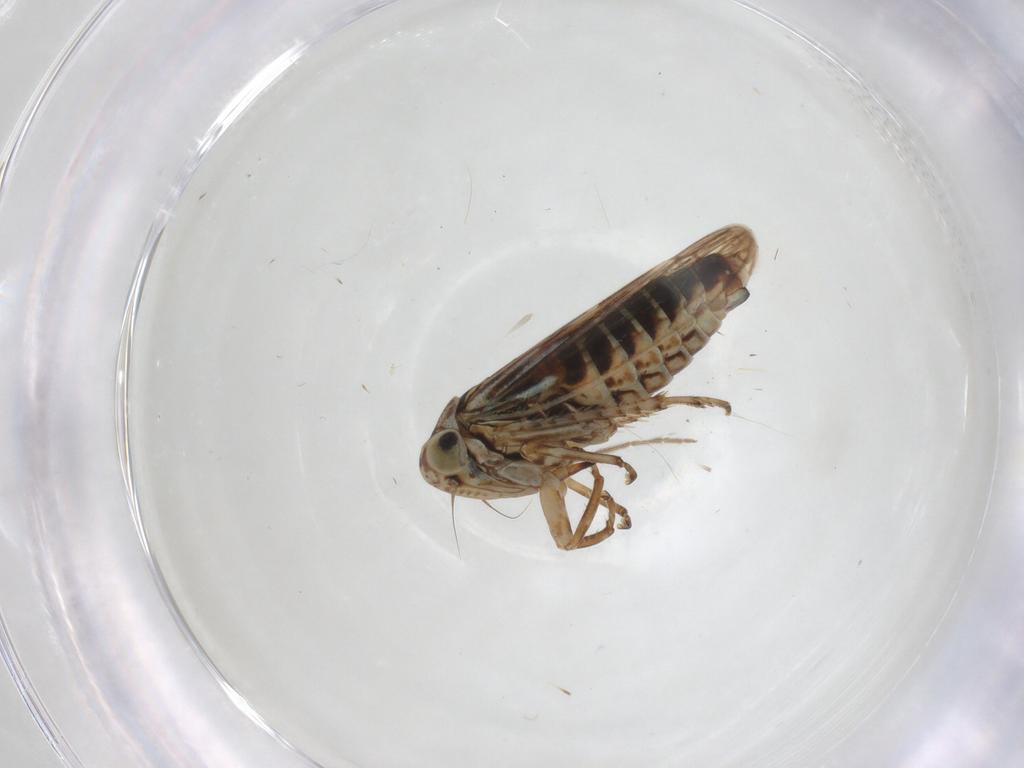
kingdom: Animalia
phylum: Arthropoda
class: Insecta
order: Hemiptera
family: Cicadellidae
